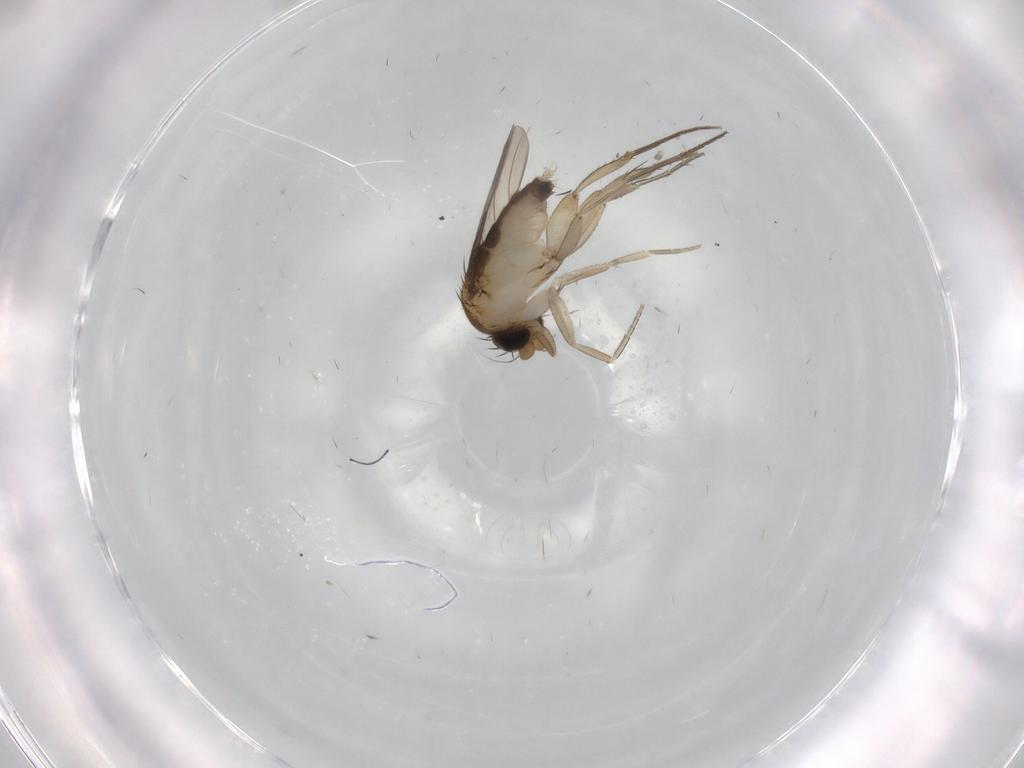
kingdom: Animalia
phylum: Arthropoda
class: Insecta
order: Diptera
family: Phoridae
